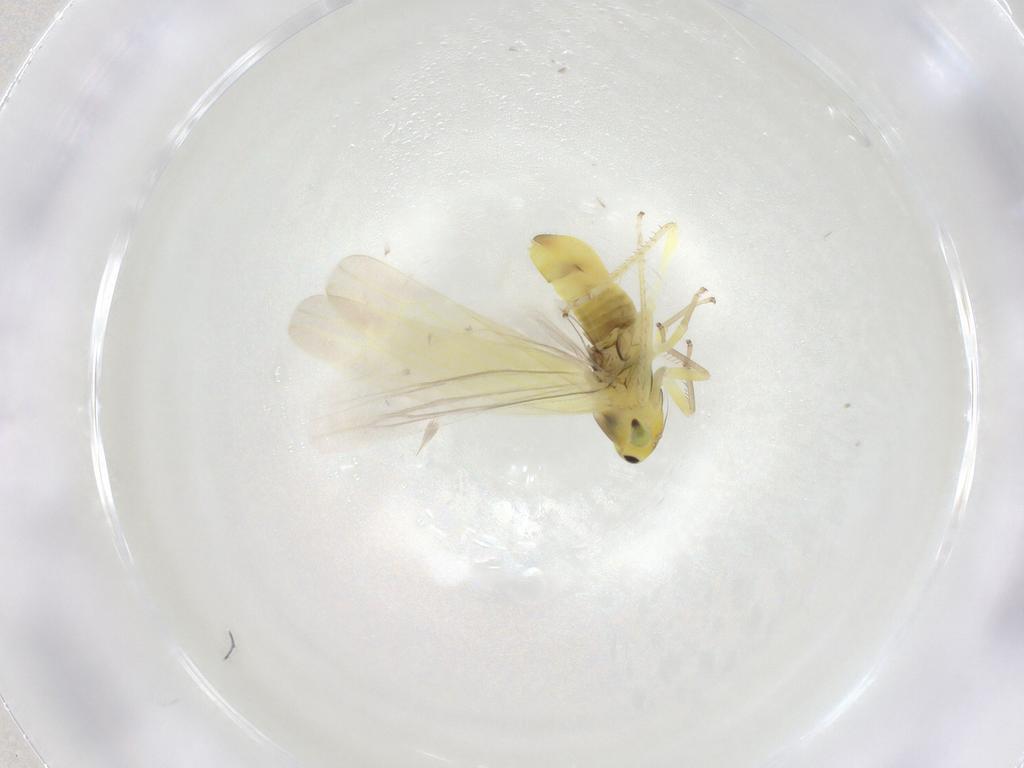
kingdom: Animalia
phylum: Arthropoda
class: Insecta
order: Hemiptera
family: Cicadellidae
